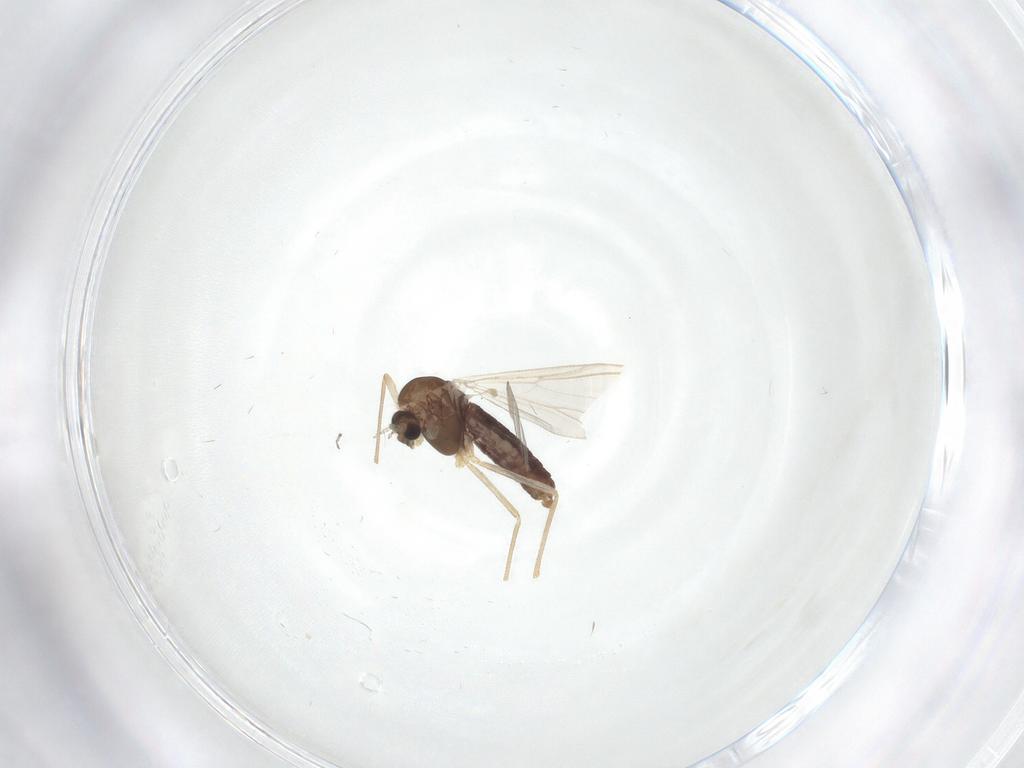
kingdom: Animalia
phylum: Arthropoda
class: Insecta
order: Diptera
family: Chironomidae
